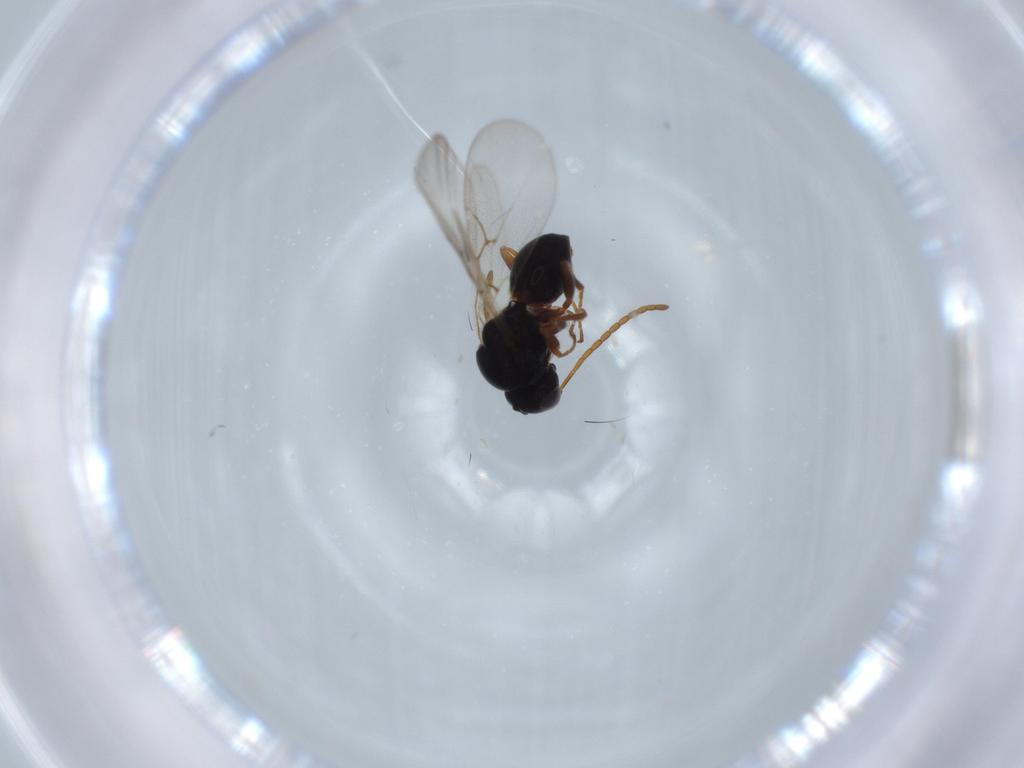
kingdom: Animalia
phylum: Arthropoda
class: Insecta
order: Hymenoptera
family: Figitidae
